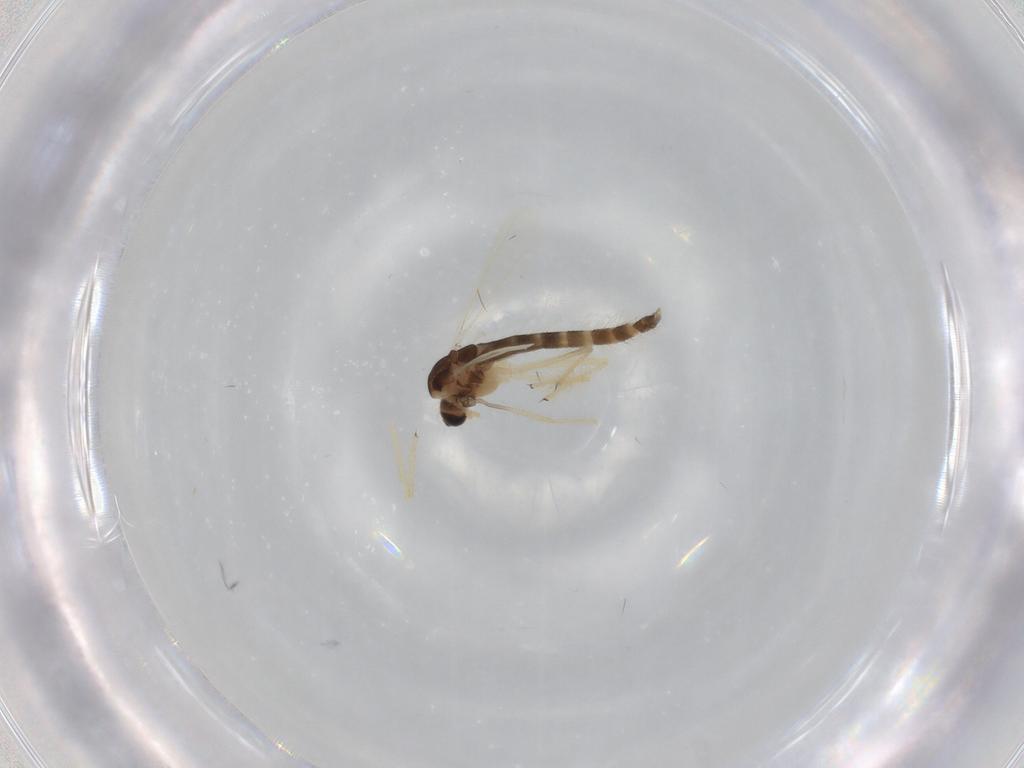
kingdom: Animalia
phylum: Arthropoda
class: Insecta
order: Diptera
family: Chironomidae
